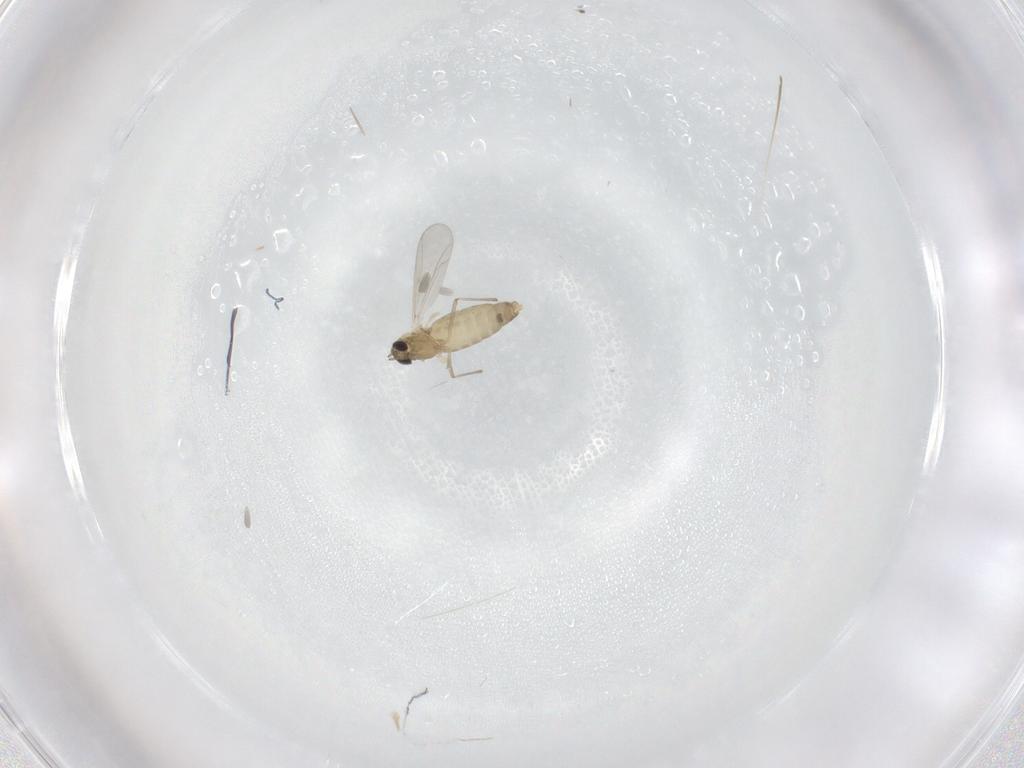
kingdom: Animalia
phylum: Arthropoda
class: Insecta
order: Diptera
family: Chironomidae
